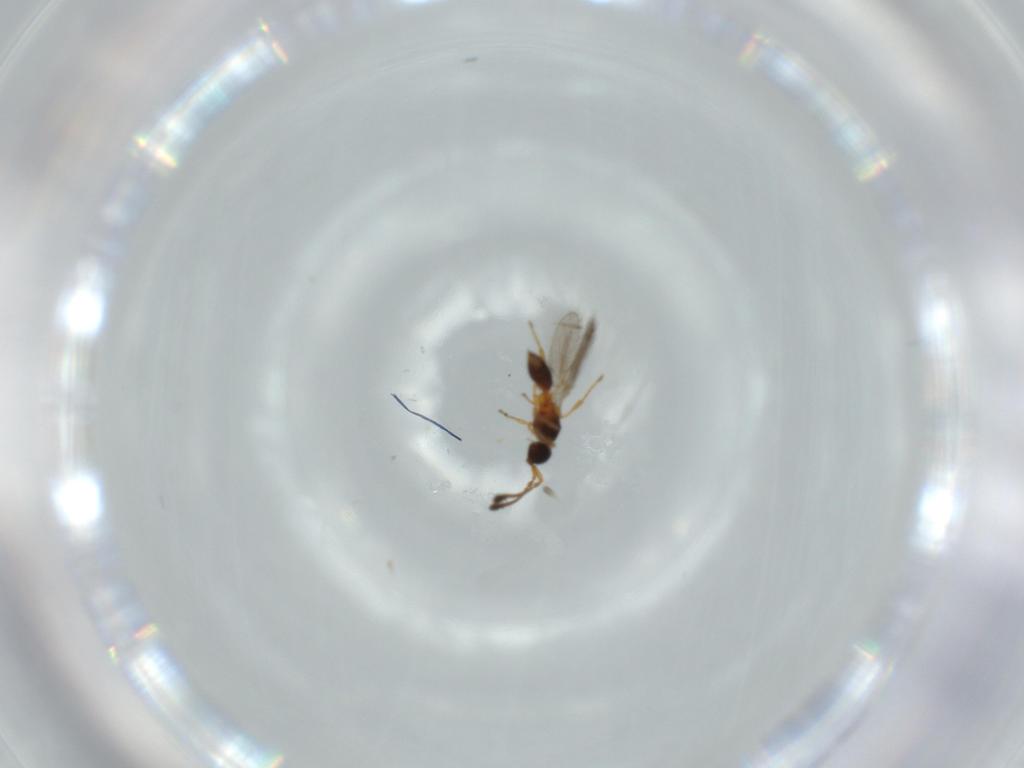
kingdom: Animalia
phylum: Arthropoda
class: Insecta
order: Hymenoptera
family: Diapriidae
